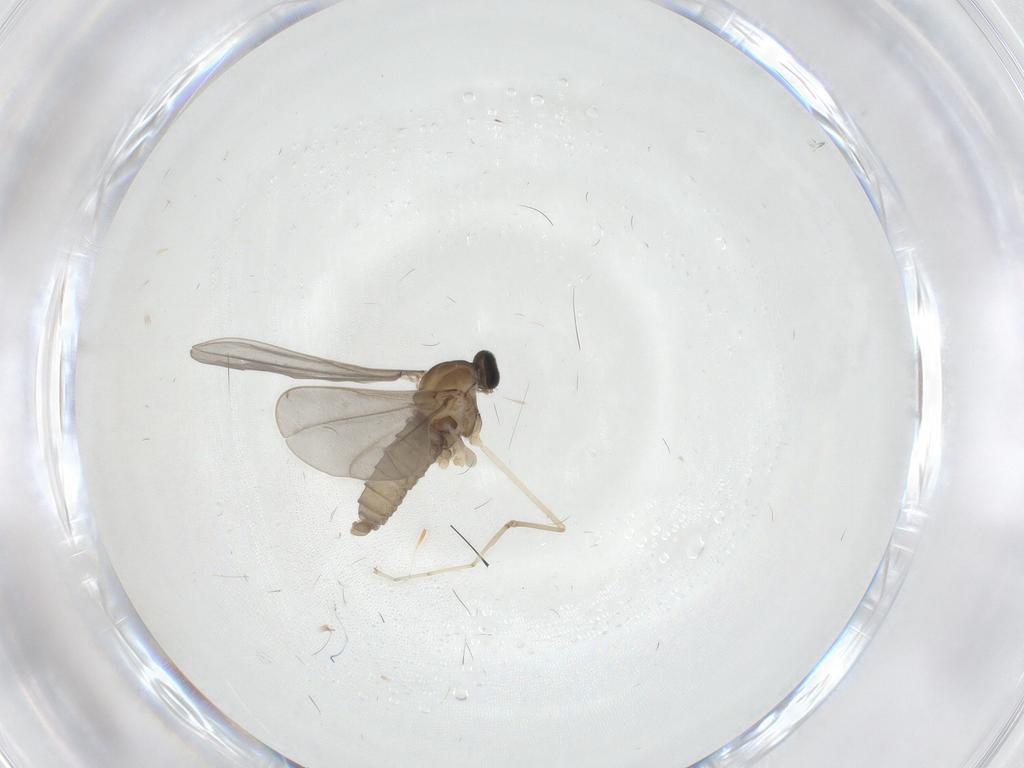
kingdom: Animalia
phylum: Arthropoda
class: Insecta
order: Diptera
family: Cecidomyiidae
